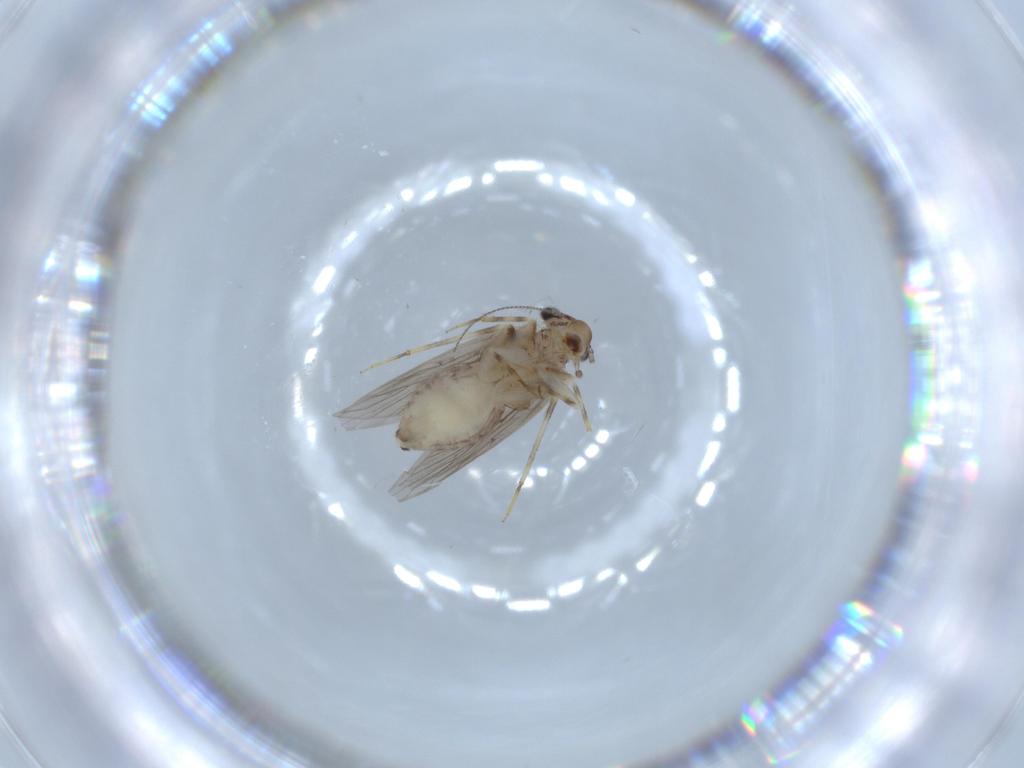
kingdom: Animalia
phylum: Arthropoda
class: Insecta
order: Psocodea
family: Lepidopsocidae
